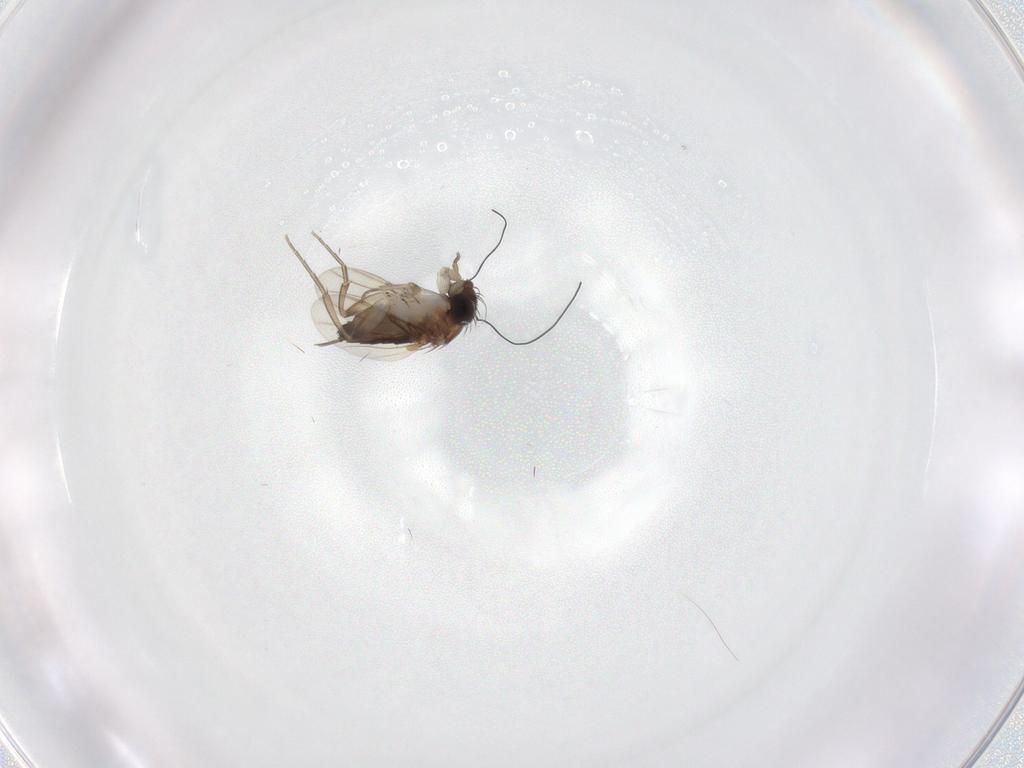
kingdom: Animalia
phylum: Arthropoda
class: Insecta
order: Diptera
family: Phoridae
